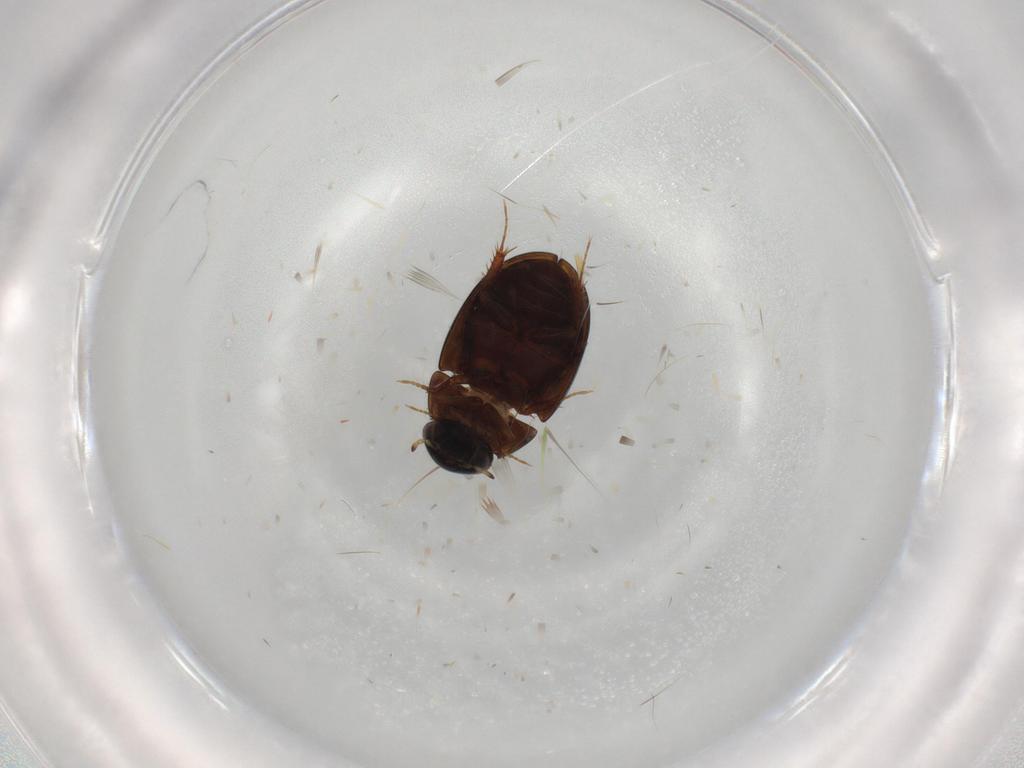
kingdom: Animalia
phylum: Arthropoda
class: Insecta
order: Coleoptera
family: Hydrophilidae
